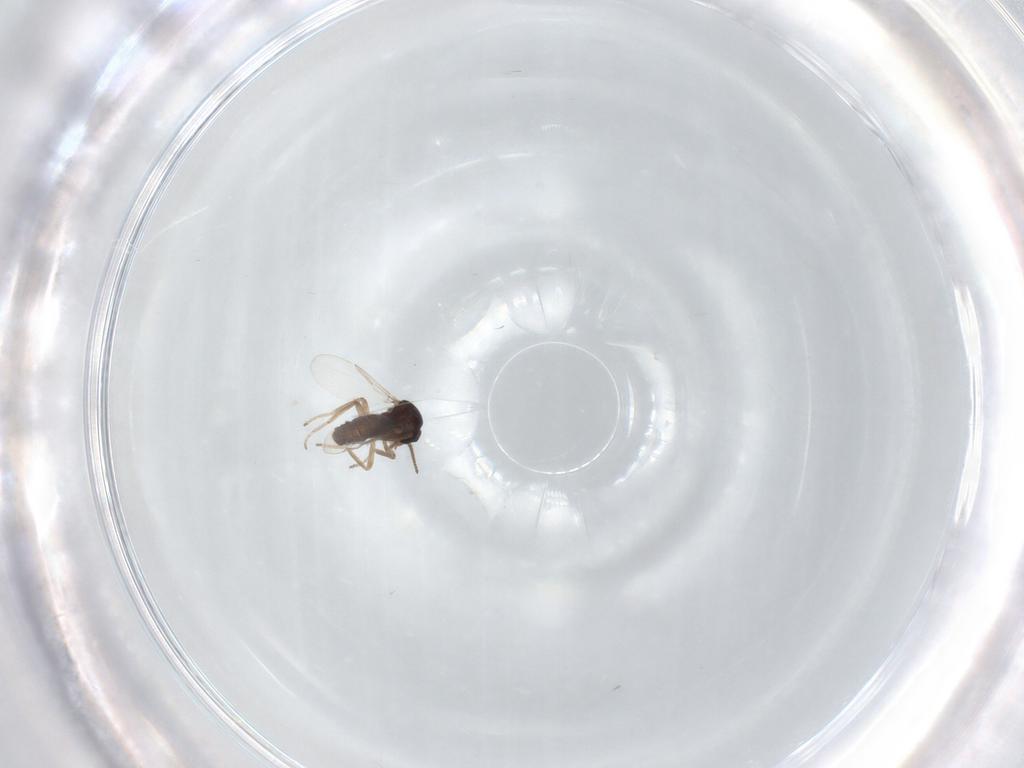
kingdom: Animalia
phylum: Arthropoda
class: Insecta
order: Diptera
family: Ceratopogonidae
